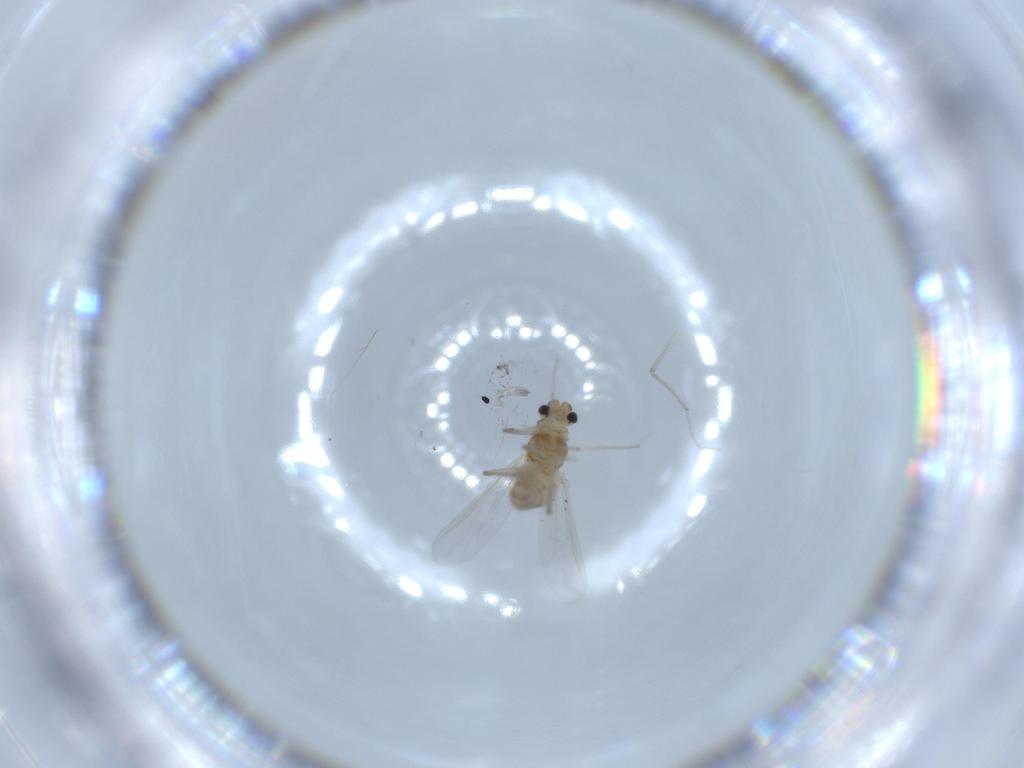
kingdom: Animalia
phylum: Arthropoda
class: Insecta
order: Diptera
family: Chironomidae
